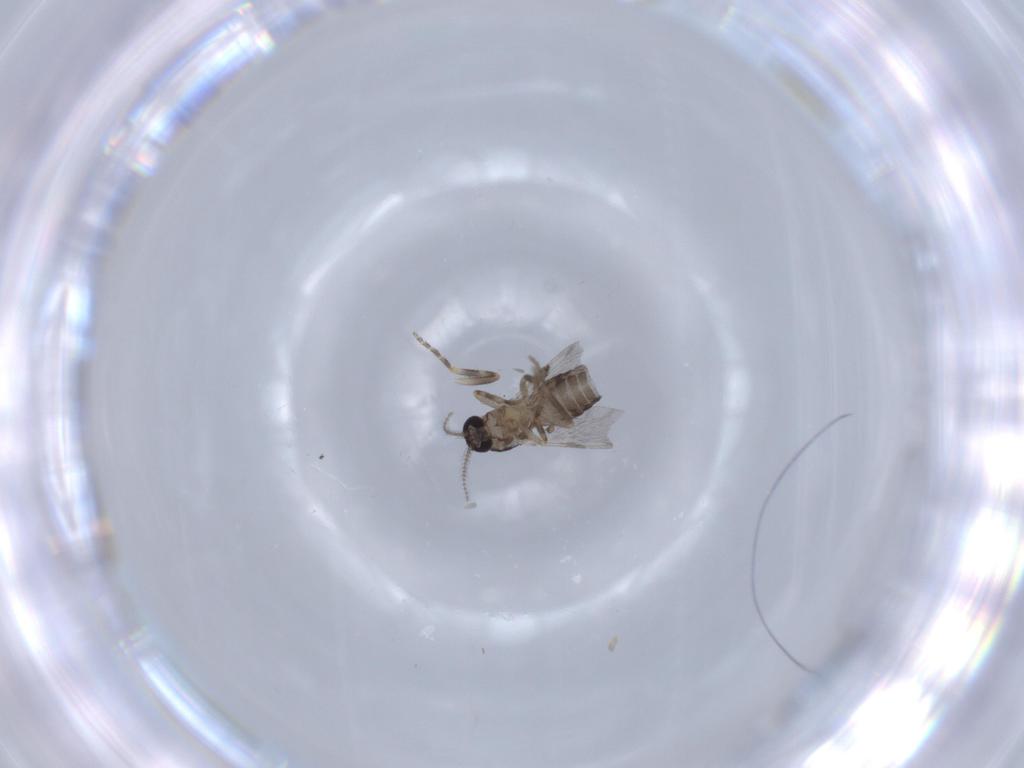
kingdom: Animalia
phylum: Arthropoda
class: Insecta
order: Diptera
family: Ceratopogonidae
